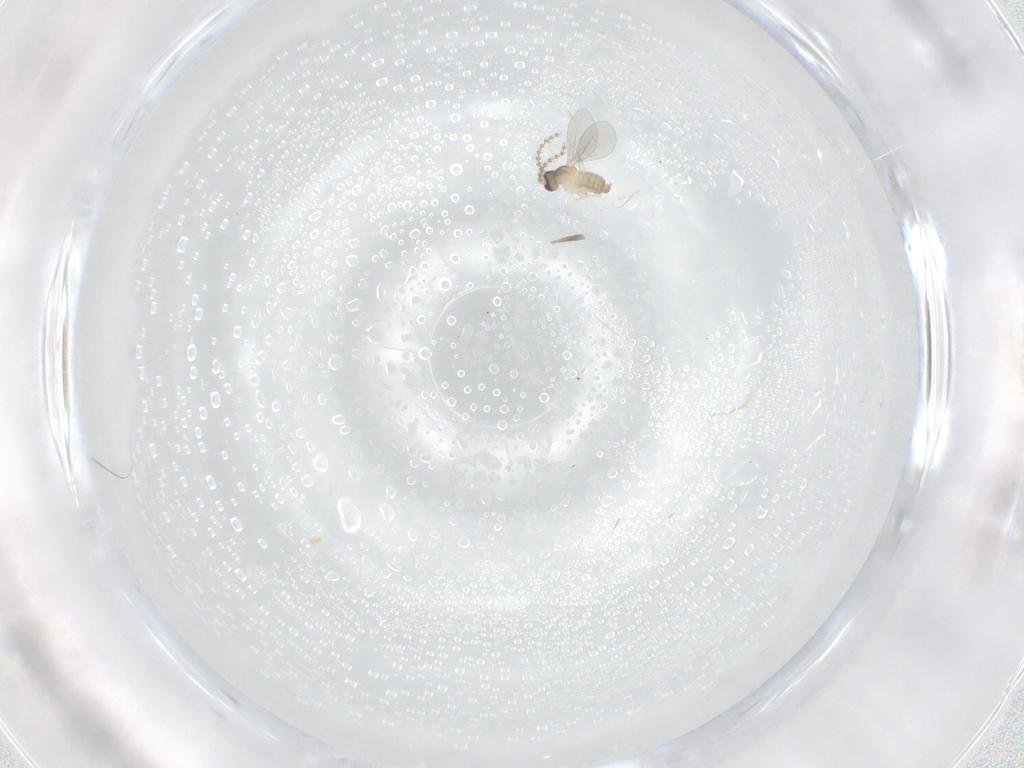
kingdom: Animalia
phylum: Arthropoda
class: Insecta
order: Diptera
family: Cecidomyiidae
